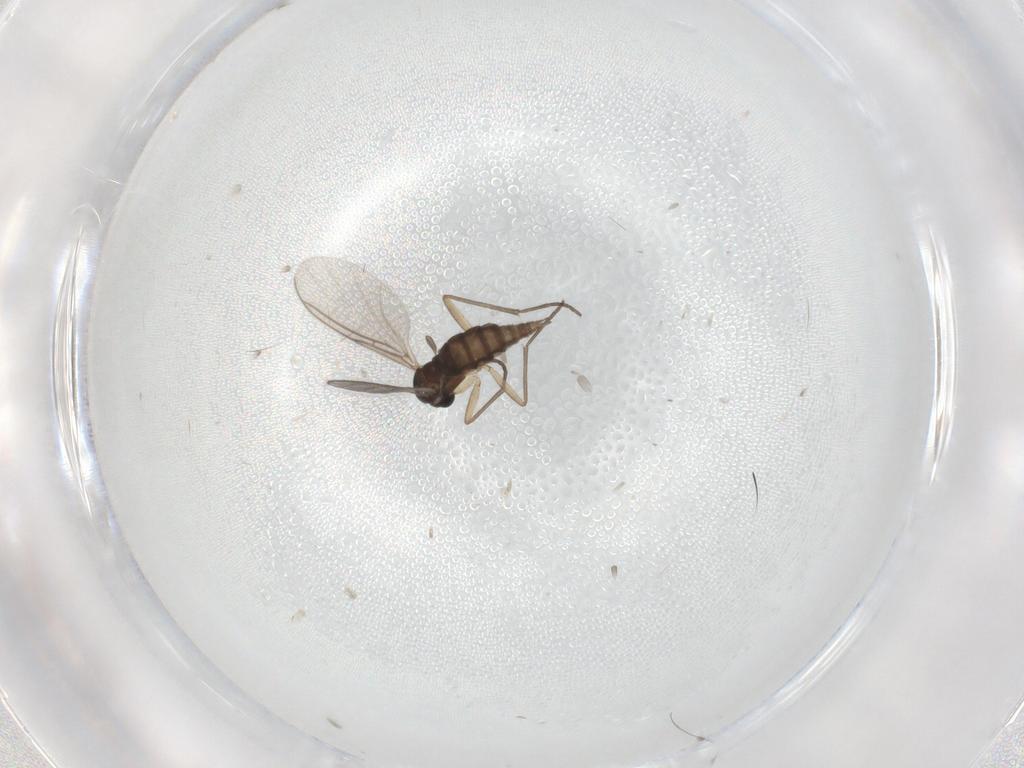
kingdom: Animalia
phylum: Arthropoda
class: Insecta
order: Diptera
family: Sciaridae
